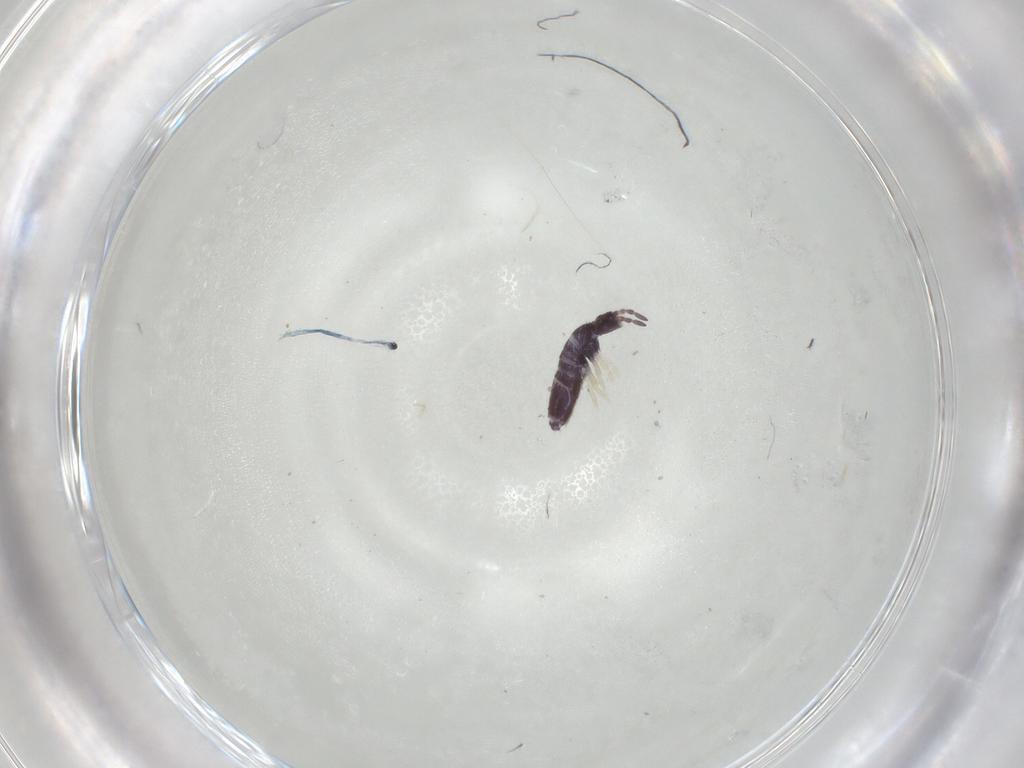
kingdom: Animalia
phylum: Arthropoda
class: Collembola
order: Entomobryomorpha
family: Entomobryidae
